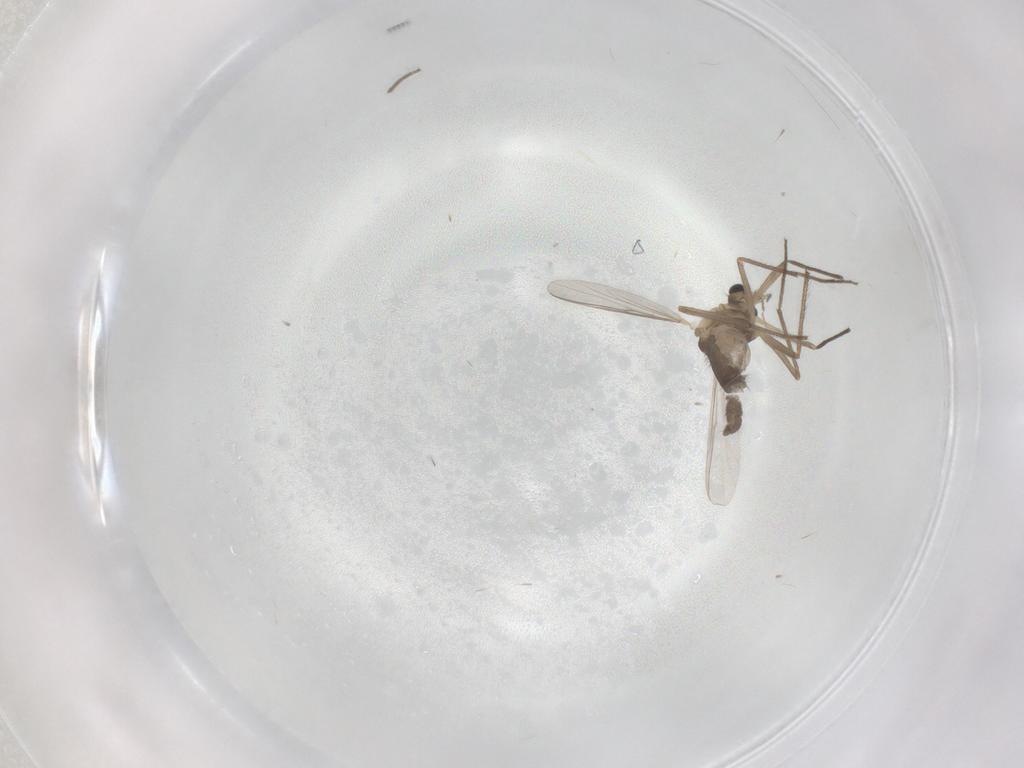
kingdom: Animalia
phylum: Arthropoda
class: Insecta
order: Diptera
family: Chironomidae
